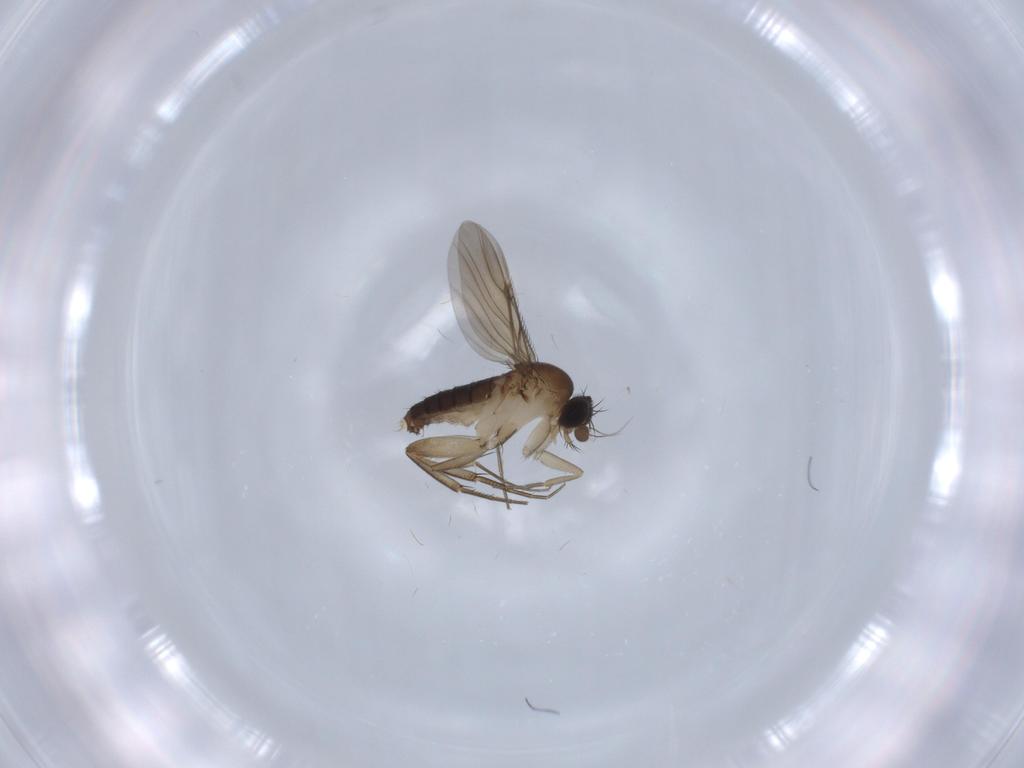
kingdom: Animalia
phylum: Arthropoda
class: Insecta
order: Diptera
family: Phoridae
